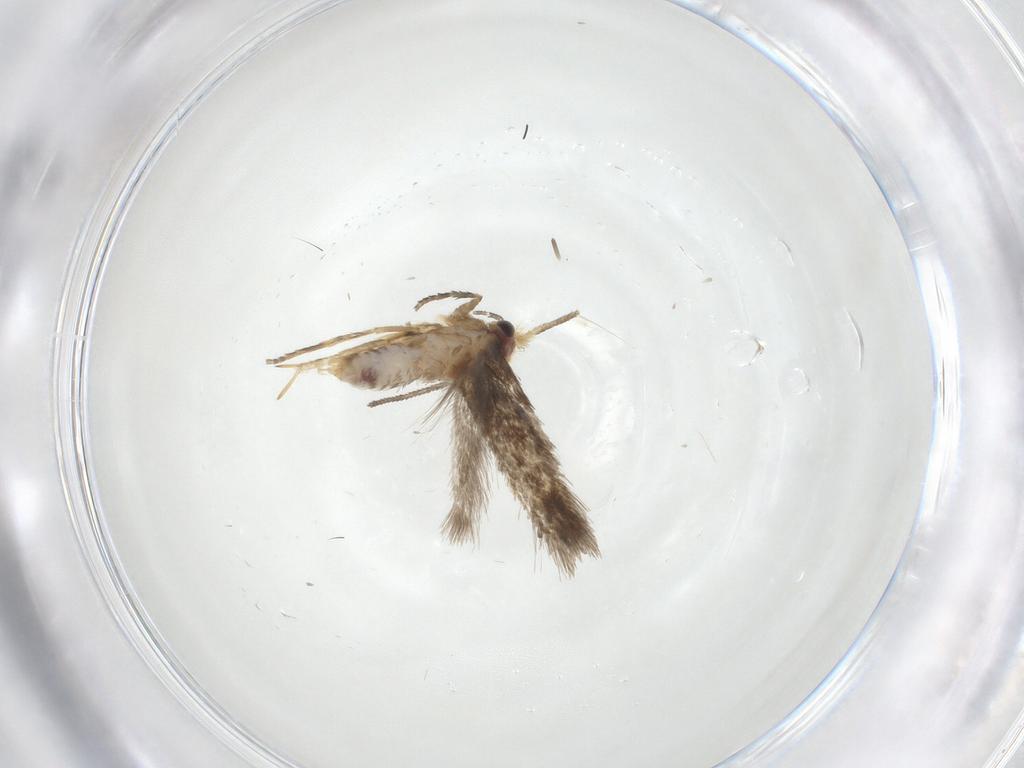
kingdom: Animalia
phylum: Arthropoda
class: Insecta
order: Lepidoptera
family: Nepticulidae
